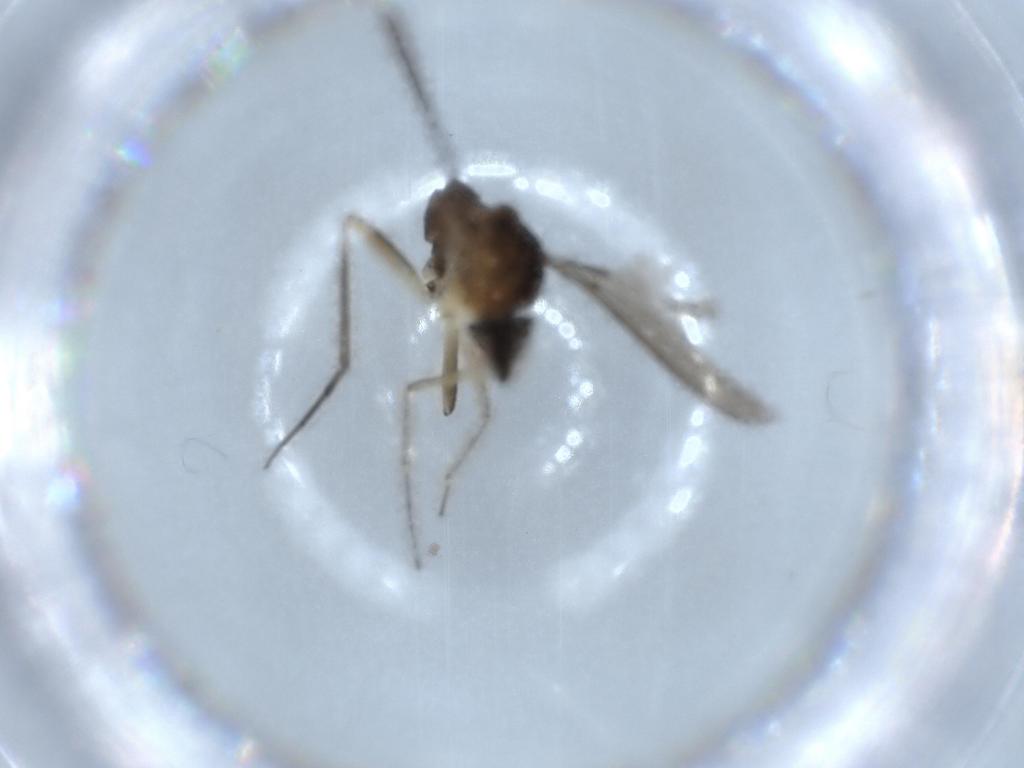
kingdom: Animalia
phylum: Arthropoda
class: Insecta
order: Diptera
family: Dolichopodidae
